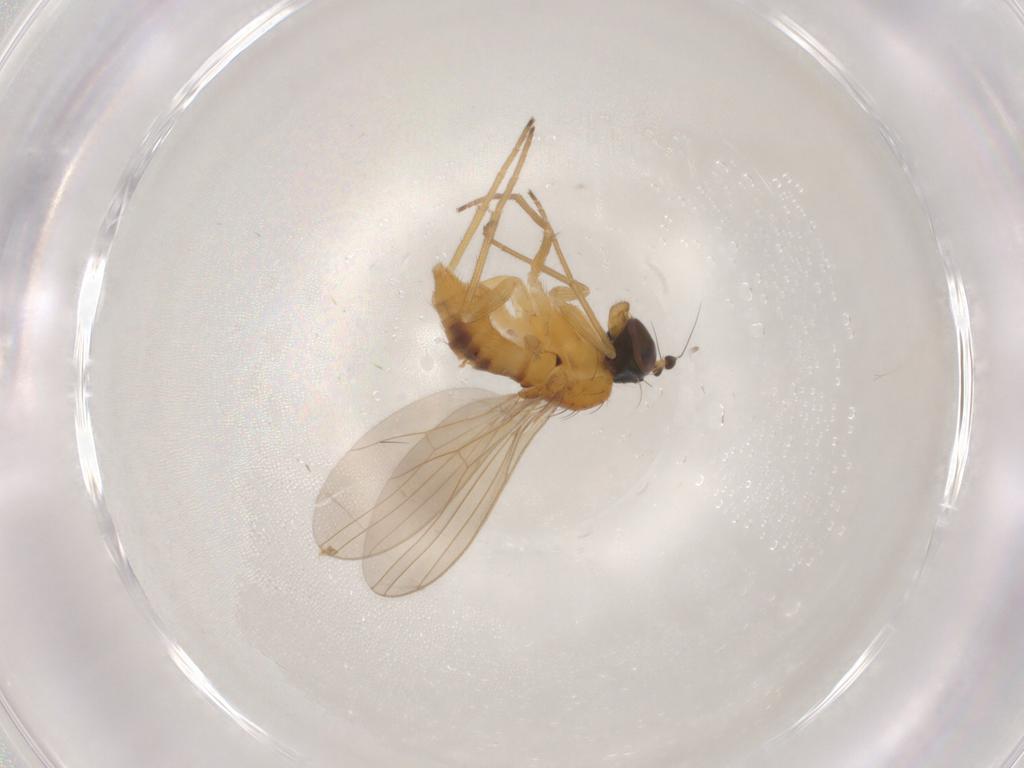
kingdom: Animalia
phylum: Arthropoda
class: Insecta
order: Diptera
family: Dolichopodidae
